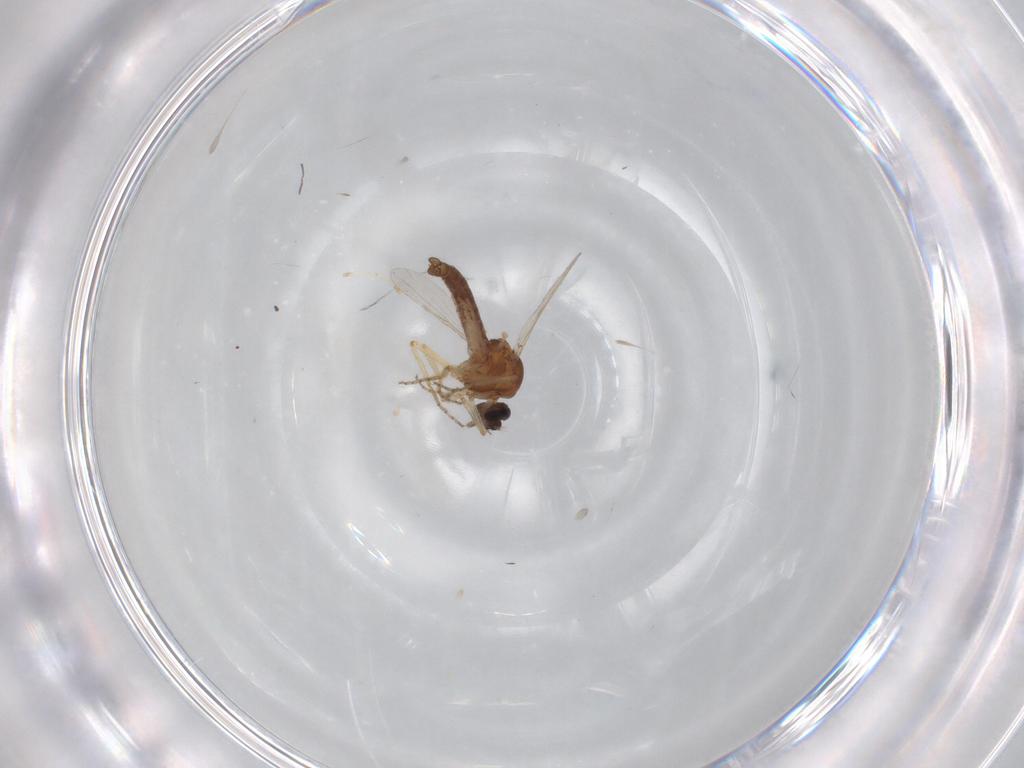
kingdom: Animalia
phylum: Arthropoda
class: Insecta
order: Diptera
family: Ceratopogonidae
